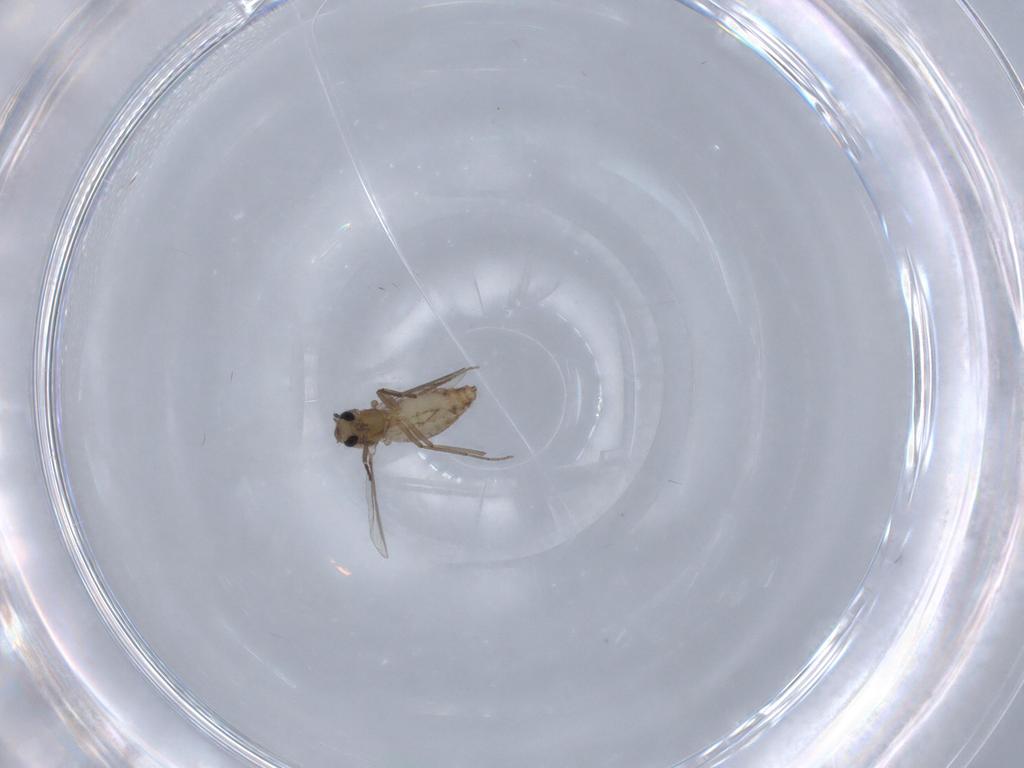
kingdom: Animalia
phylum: Arthropoda
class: Insecta
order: Diptera
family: Chironomidae
